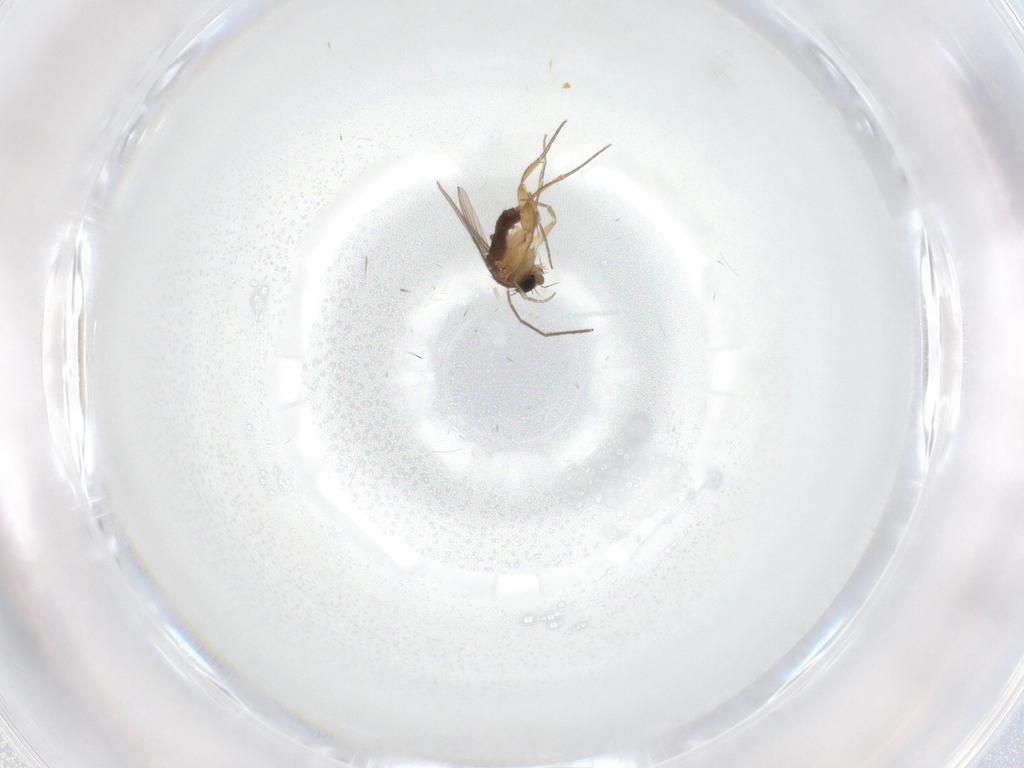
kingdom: Animalia
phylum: Arthropoda
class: Insecta
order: Diptera
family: Dolichopodidae
